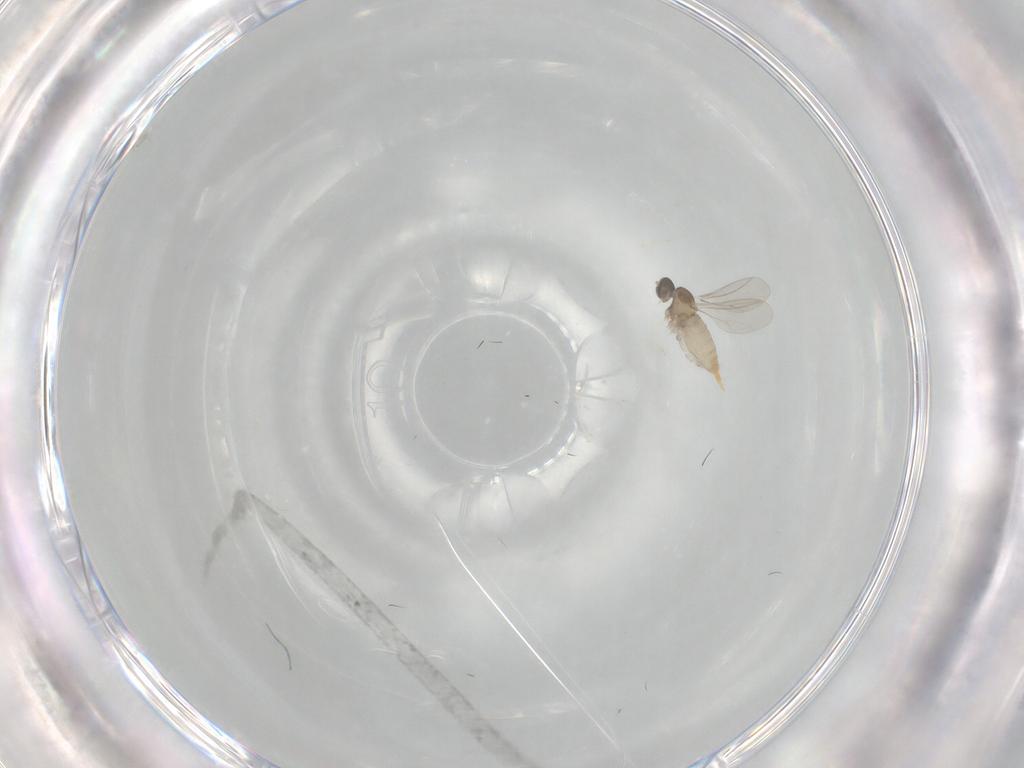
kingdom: Animalia
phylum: Arthropoda
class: Insecta
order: Diptera
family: Cecidomyiidae
